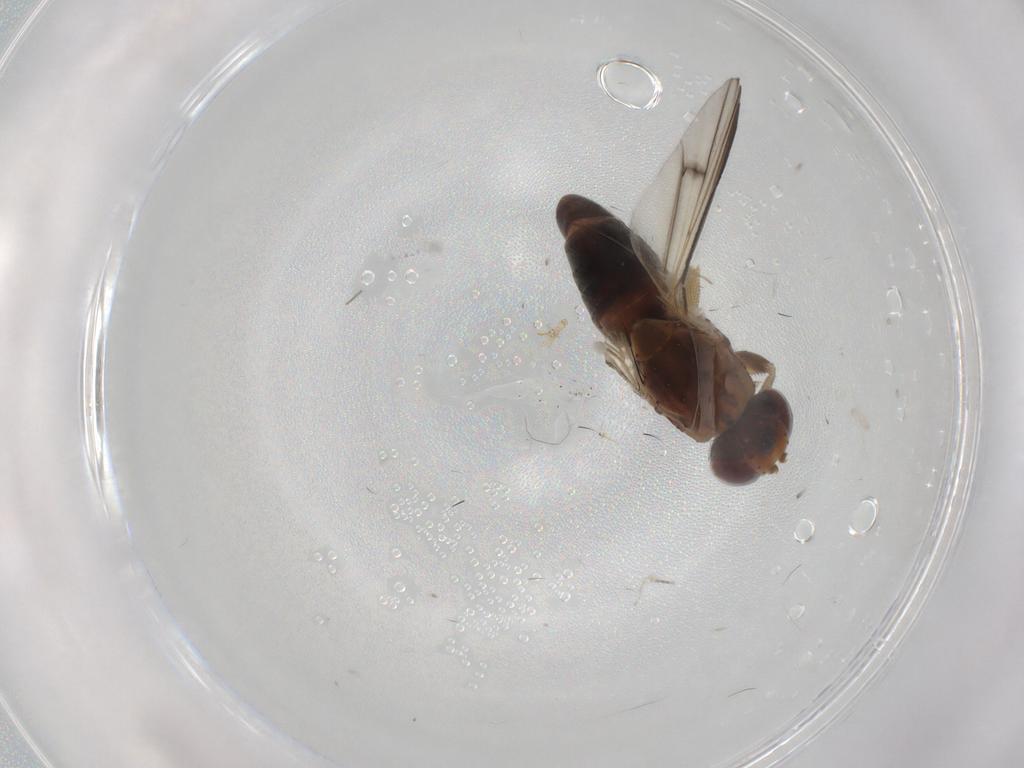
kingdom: Animalia
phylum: Arthropoda
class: Insecta
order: Diptera
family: Heleomyzidae
